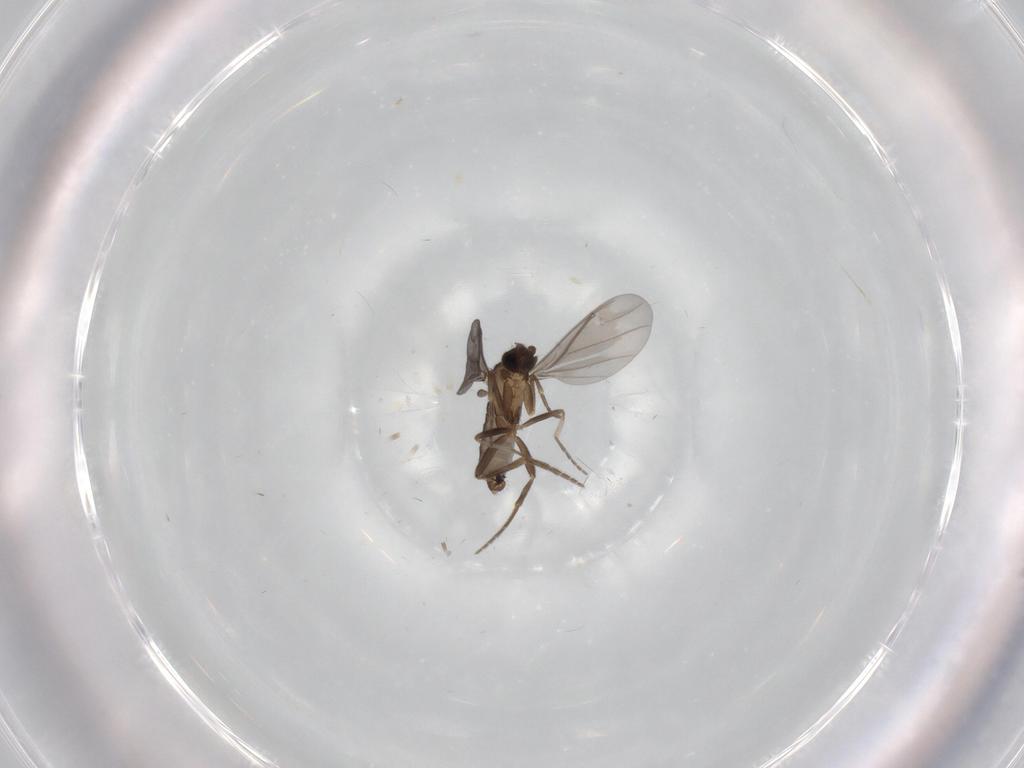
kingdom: Animalia
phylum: Arthropoda
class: Insecta
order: Diptera
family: Phoridae
